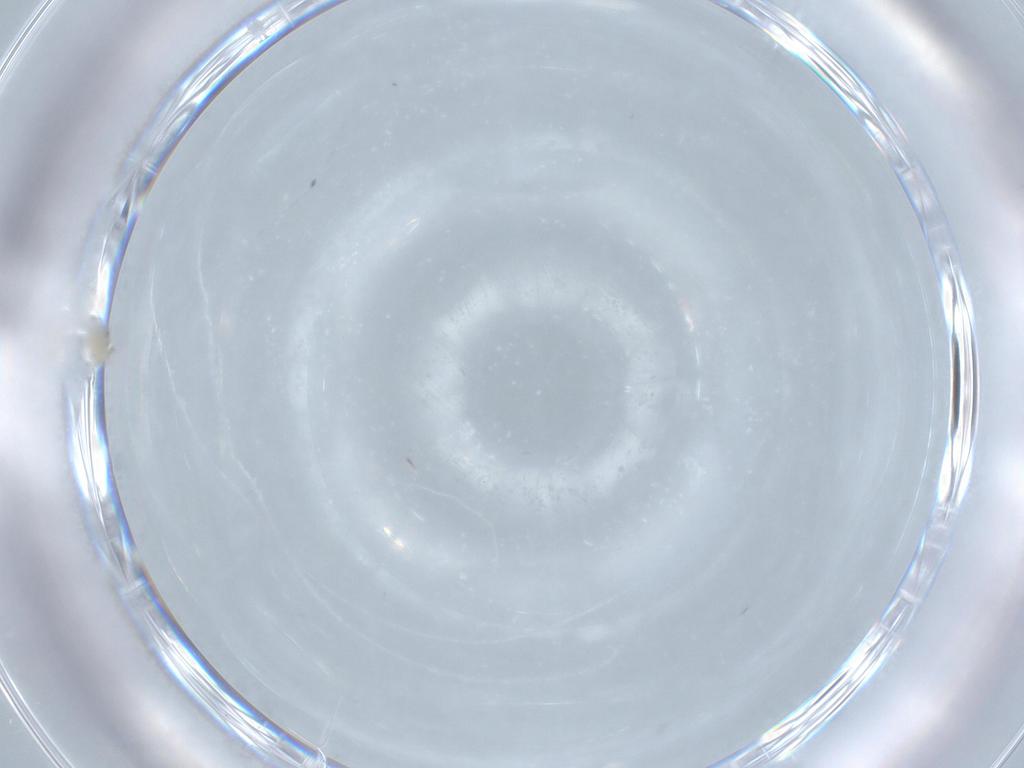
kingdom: Animalia
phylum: Arthropoda
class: Insecta
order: Diptera
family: Cecidomyiidae
